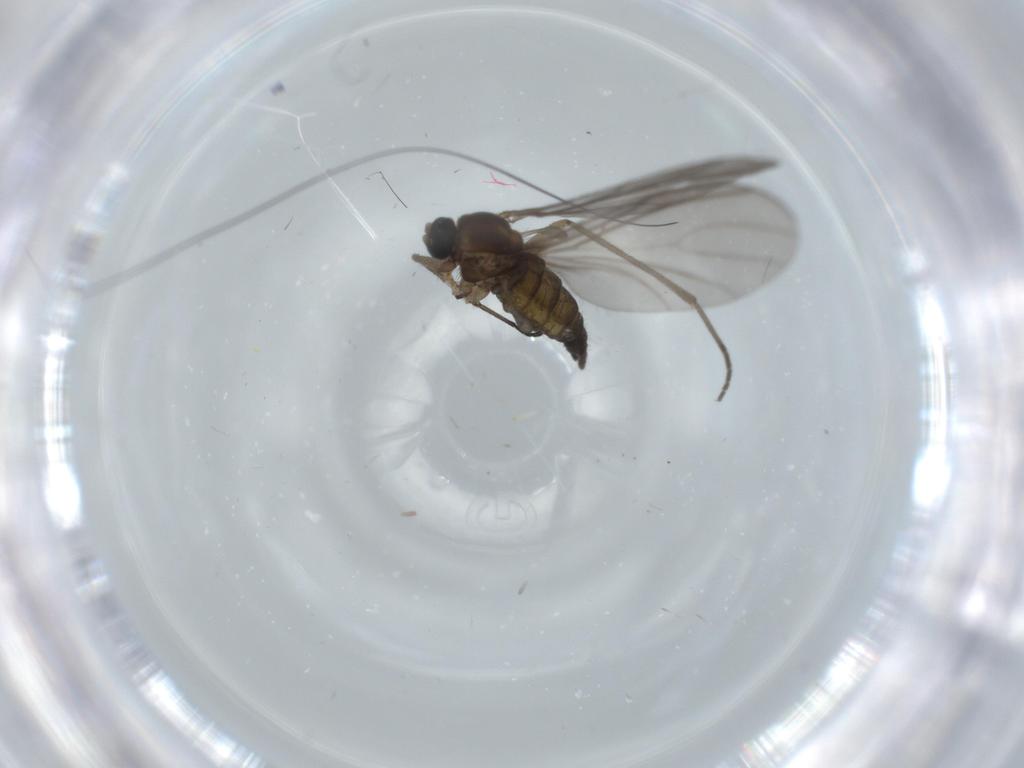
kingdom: Animalia
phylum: Arthropoda
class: Insecta
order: Diptera
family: Sciaridae
